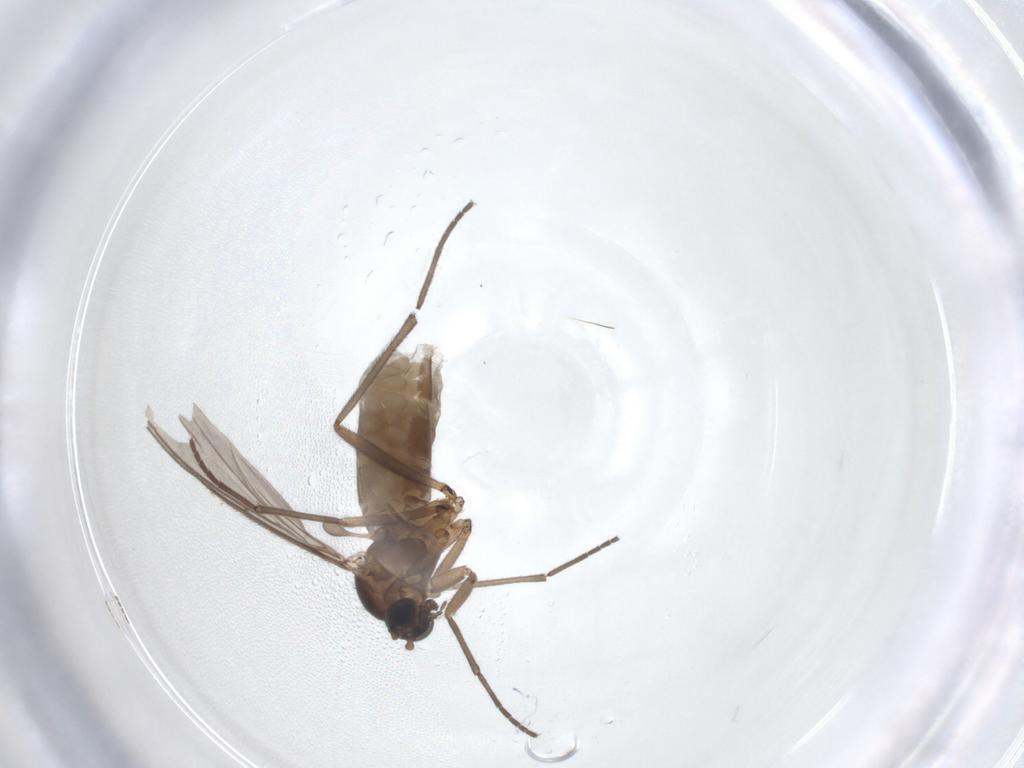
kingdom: Animalia
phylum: Arthropoda
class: Insecta
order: Diptera
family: Sciaridae
